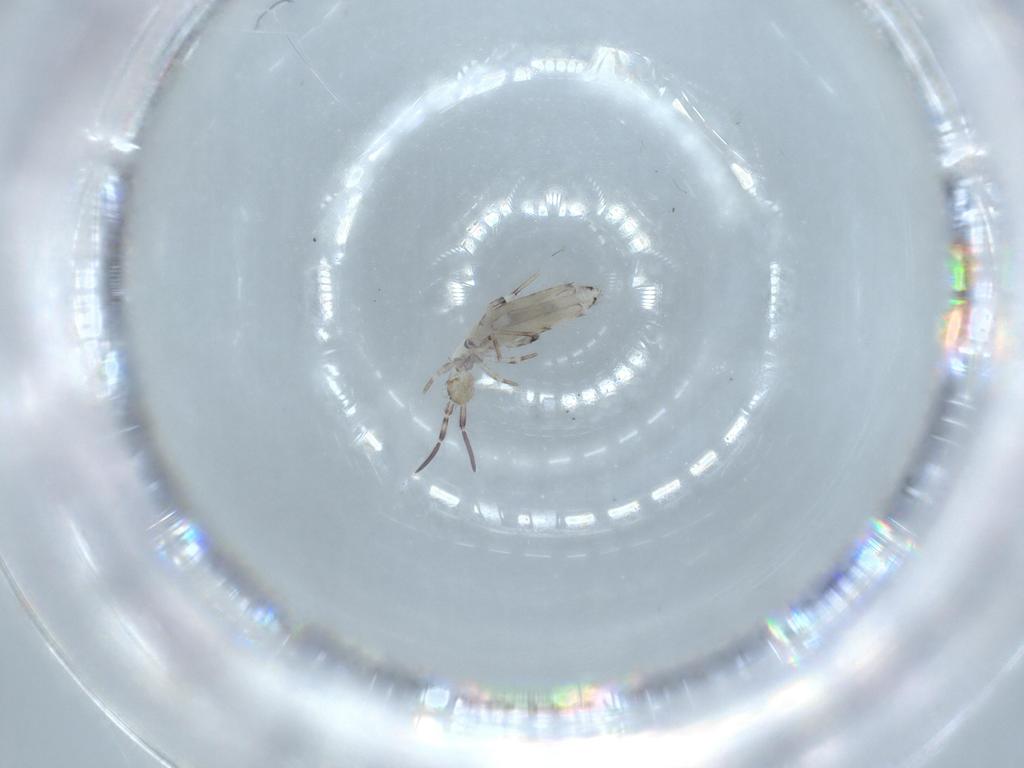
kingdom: Animalia
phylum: Arthropoda
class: Collembola
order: Entomobryomorpha
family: Entomobryidae
